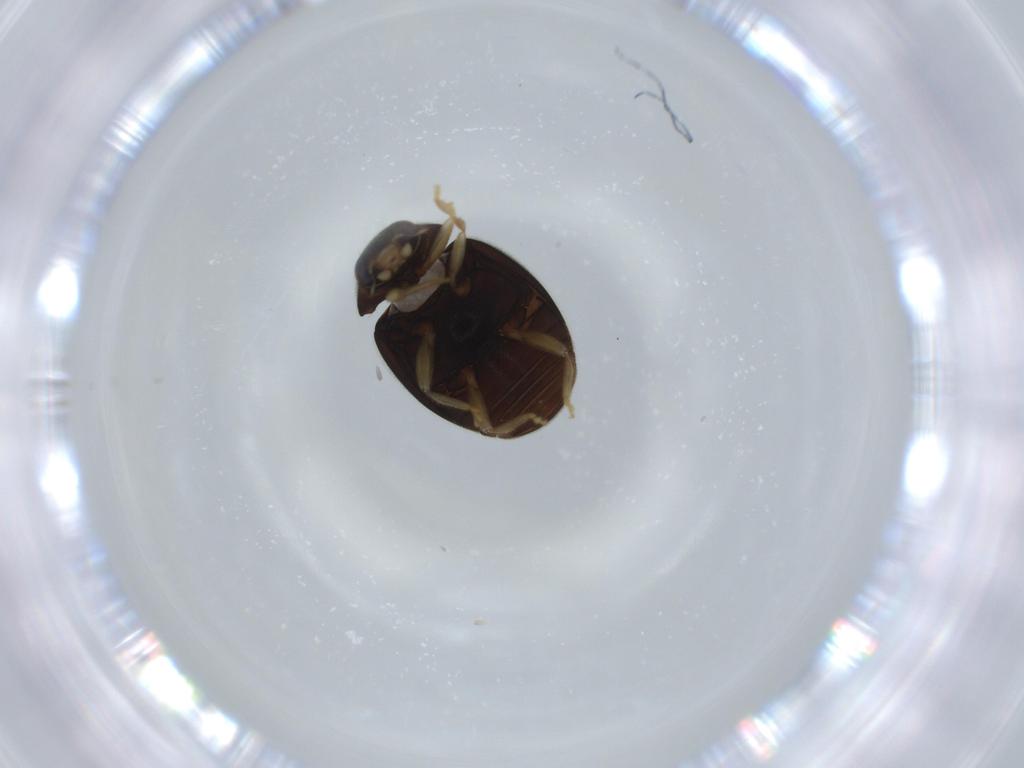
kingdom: Animalia
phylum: Arthropoda
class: Insecta
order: Coleoptera
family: Coccinellidae
